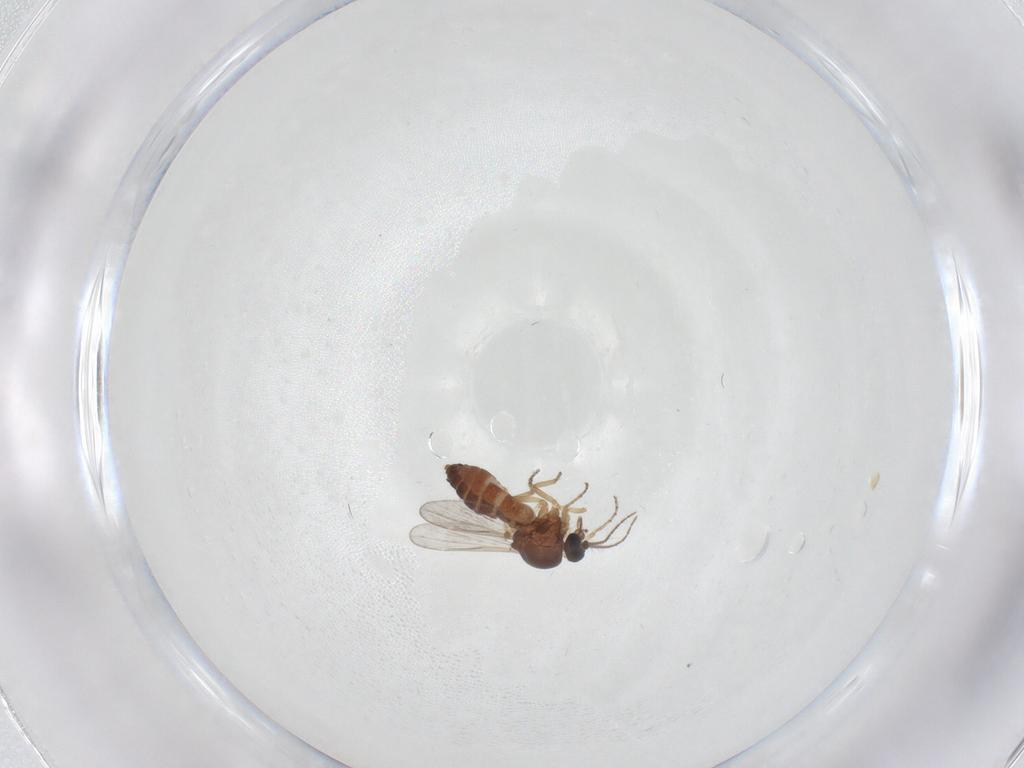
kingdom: Animalia
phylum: Arthropoda
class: Insecta
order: Diptera
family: Ceratopogonidae
